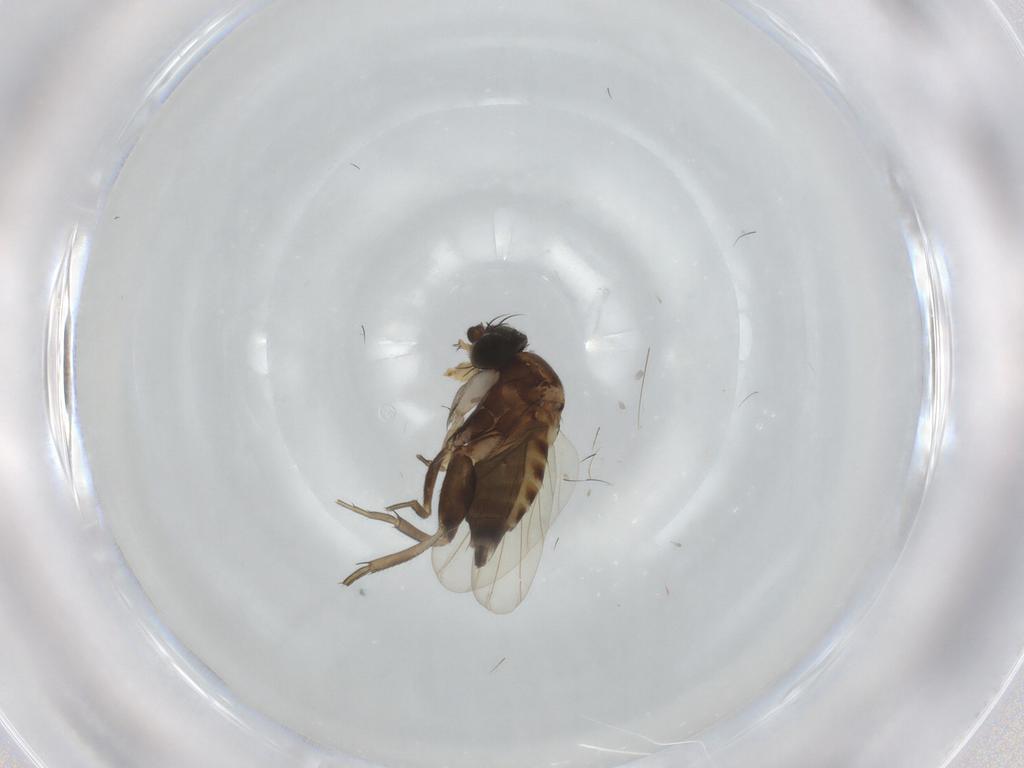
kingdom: Animalia
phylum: Arthropoda
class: Insecta
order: Diptera
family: Phoridae
